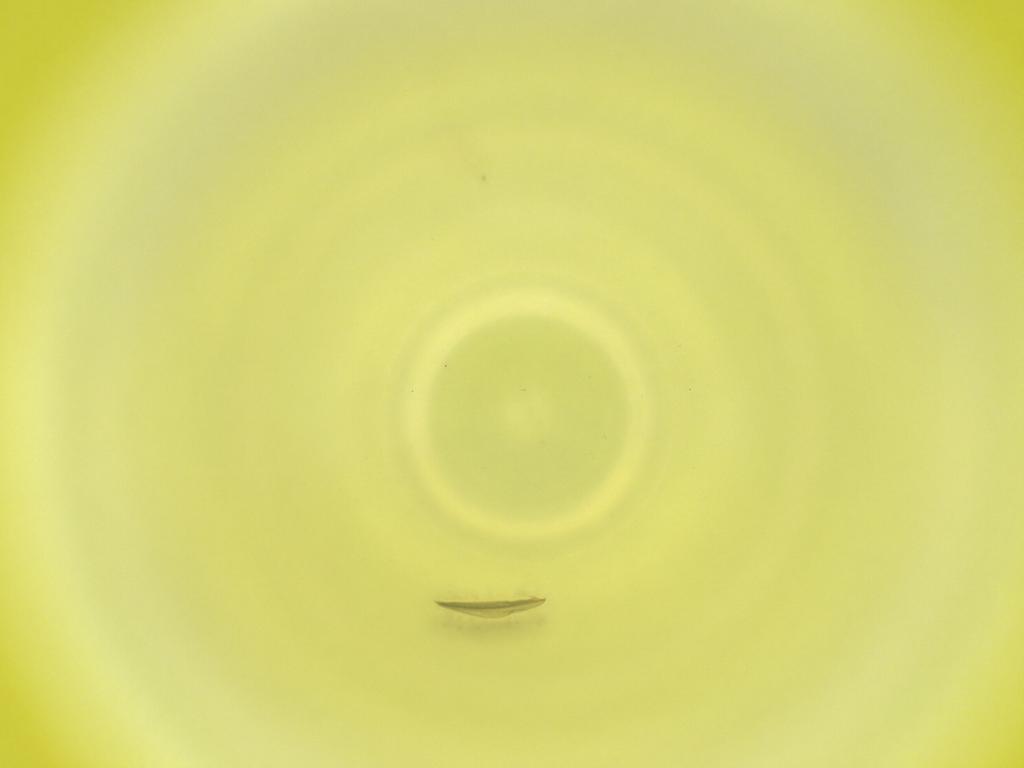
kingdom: Animalia
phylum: Arthropoda
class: Insecta
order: Diptera
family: Cecidomyiidae
